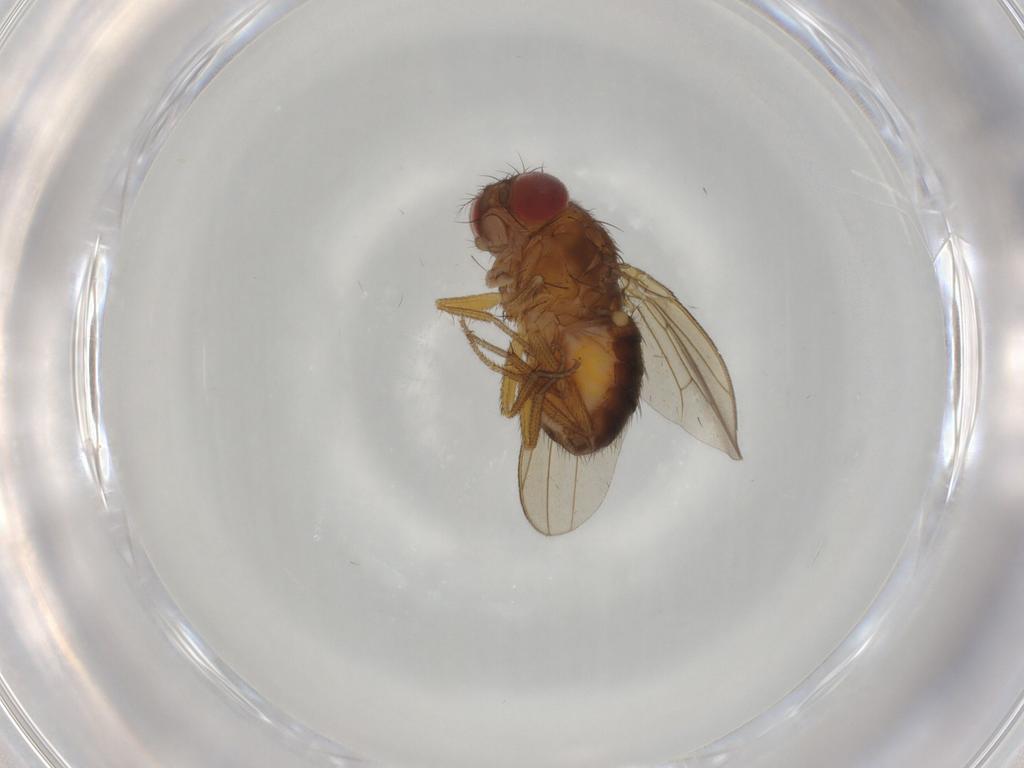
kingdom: Animalia
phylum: Arthropoda
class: Insecta
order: Diptera
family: Drosophilidae
